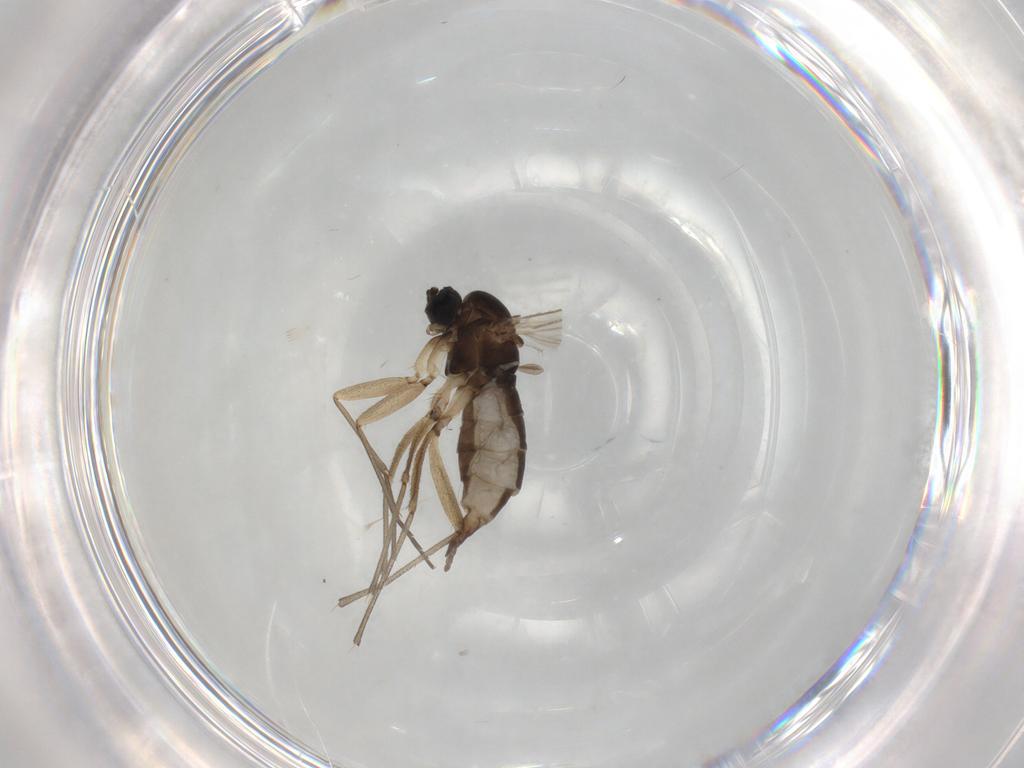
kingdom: Animalia
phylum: Arthropoda
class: Insecta
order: Diptera
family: Sciaridae
